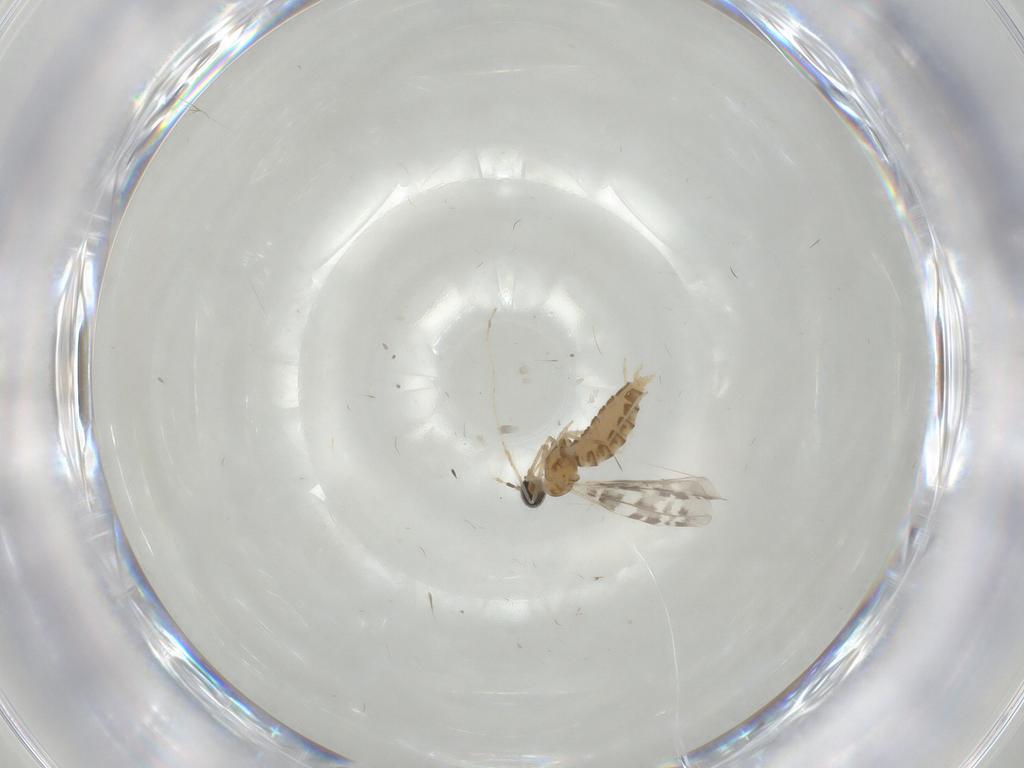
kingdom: Animalia
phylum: Arthropoda
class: Insecta
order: Diptera
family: Cecidomyiidae
